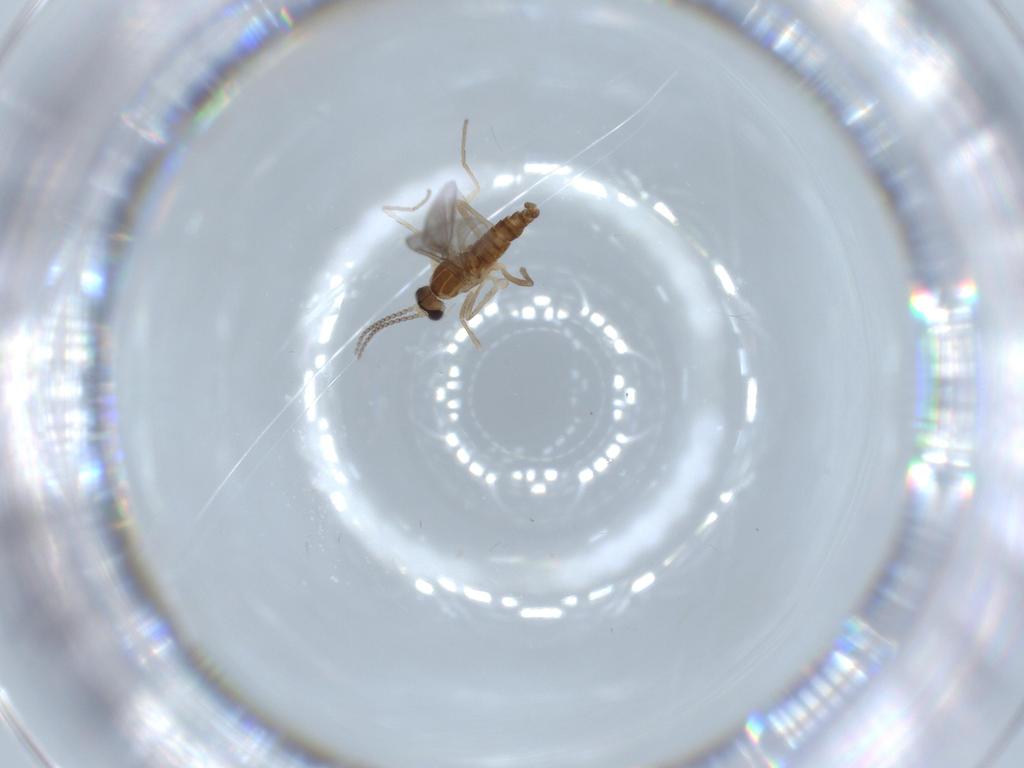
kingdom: Animalia
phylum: Arthropoda
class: Insecta
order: Diptera
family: Cecidomyiidae
